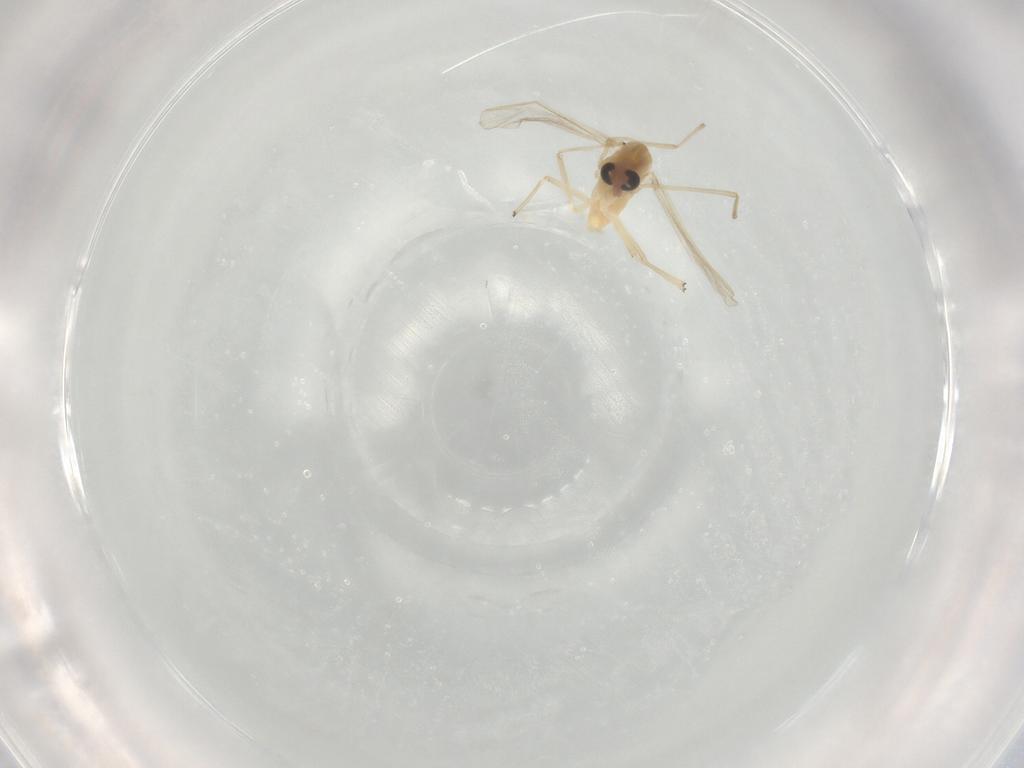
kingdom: Animalia
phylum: Arthropoda
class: Insecta
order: Diptera
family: Chironomidae
